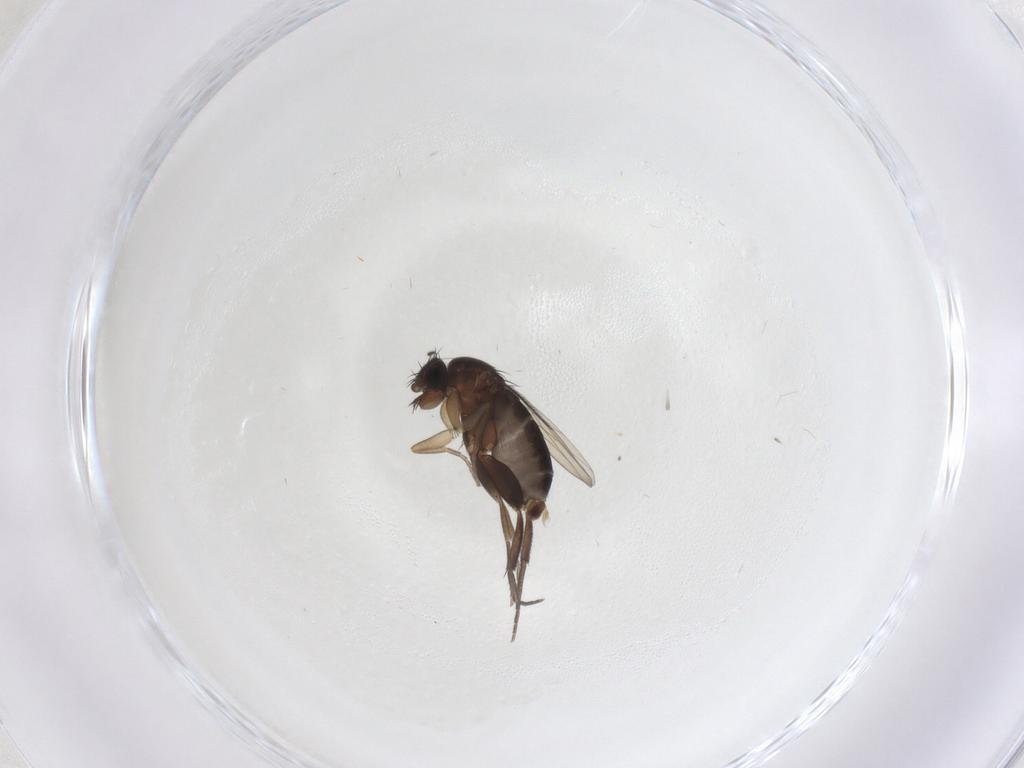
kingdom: Animalia
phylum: Arthropoda
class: Insecta
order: Diptera
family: Phoridae
